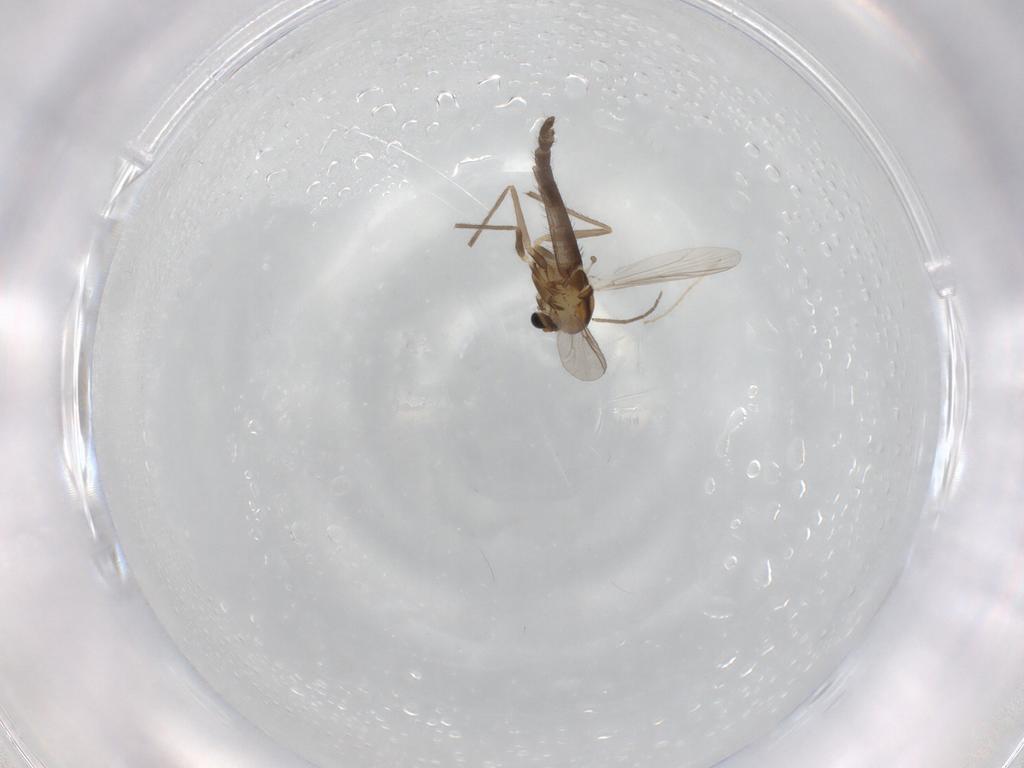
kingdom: Animalia
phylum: Arthropoda
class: Insecta
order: Diptera
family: Chironomidae
